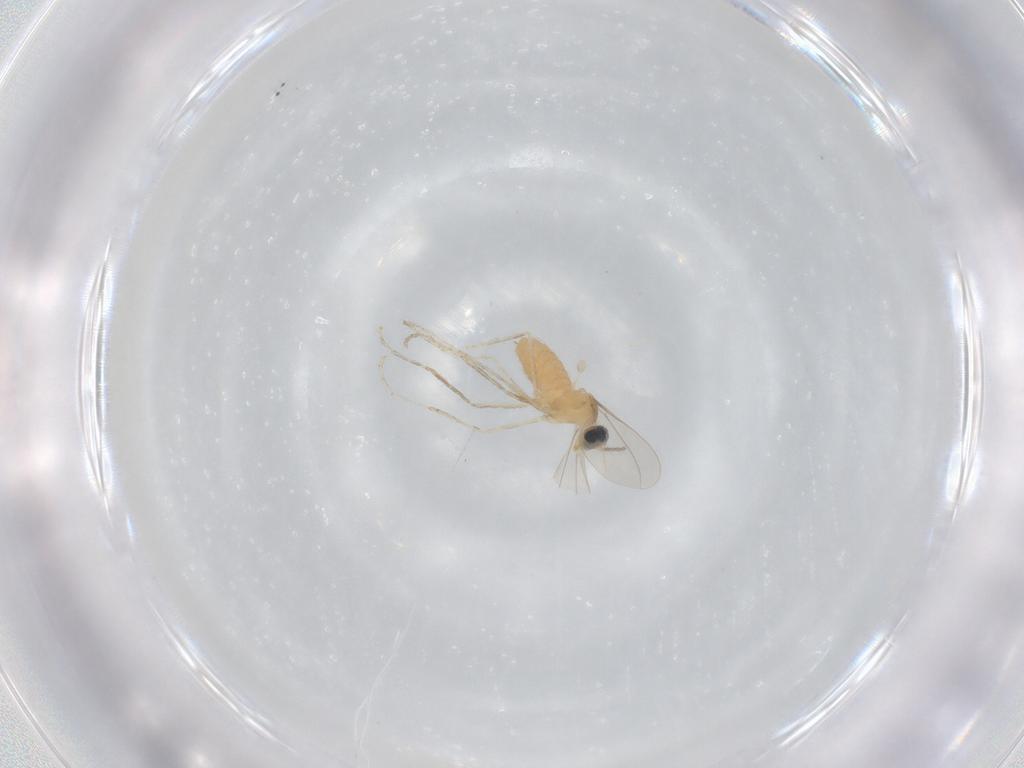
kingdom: Animalia
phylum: Arthropoda
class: Insecta
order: Diptera
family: Cecidomyiidae
